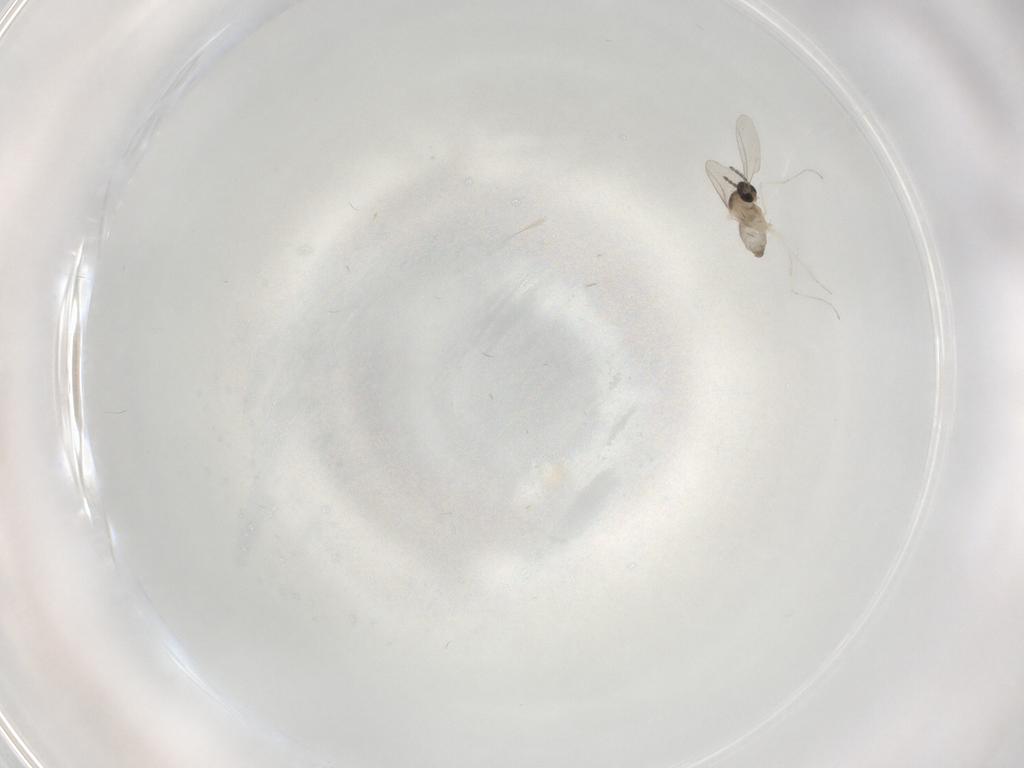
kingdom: Animalia
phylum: Arthropoda
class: Insecta
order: Diptera
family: Cecidomyiidae
